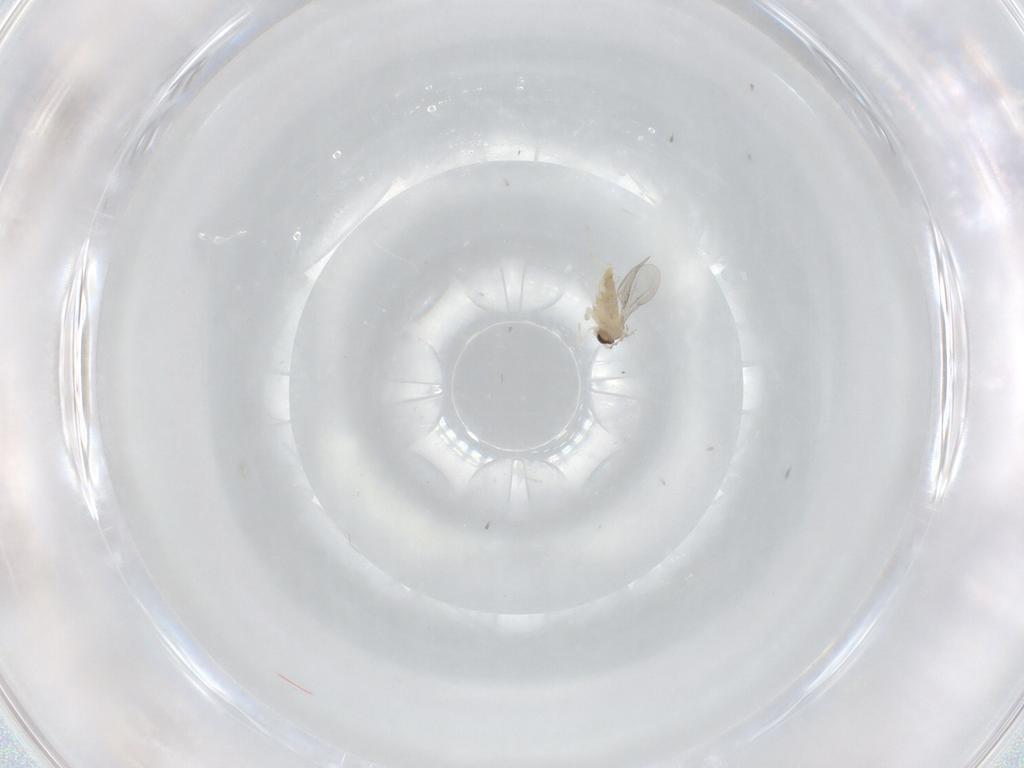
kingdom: Animalia
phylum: Arthropoda
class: Insecta
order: Diptera
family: Cecidomyiidae
